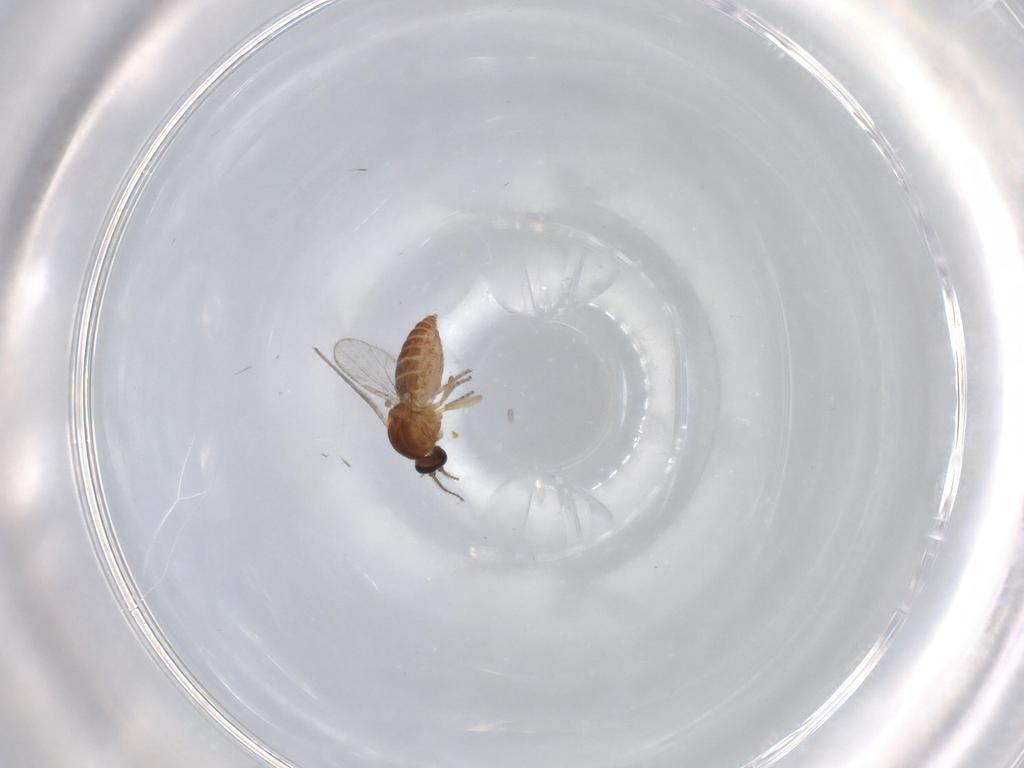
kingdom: Animalia
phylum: Arthropoda
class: Insecta
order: Diptera
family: Ceratopogonidae
